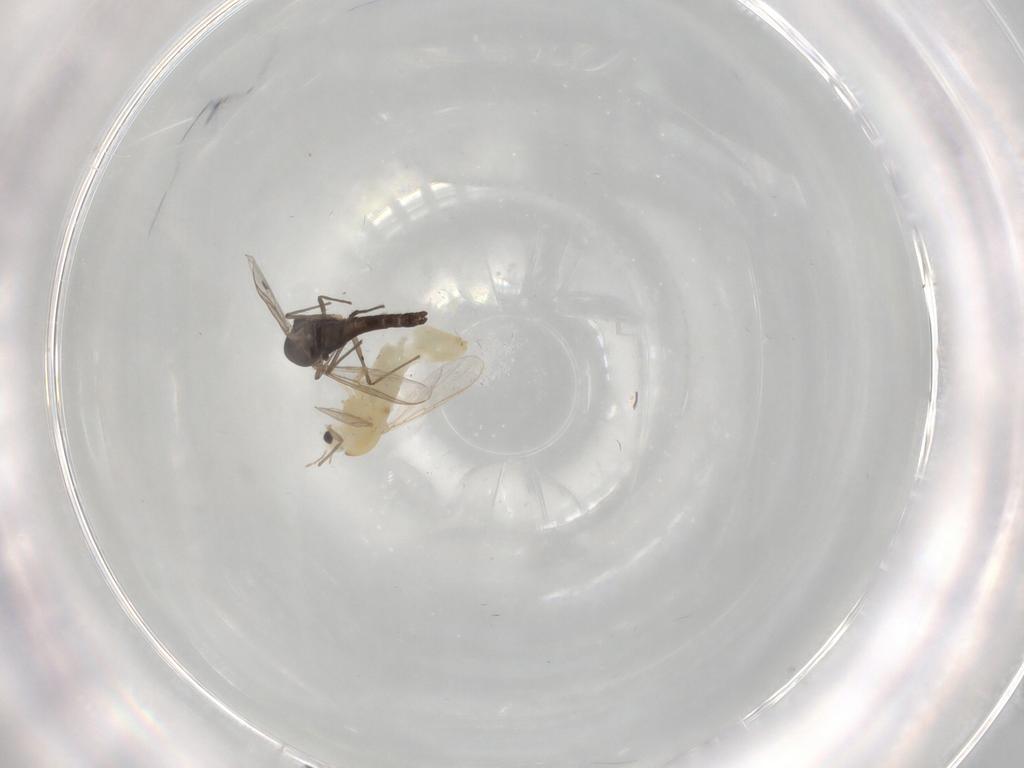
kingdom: Animalia
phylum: Arthropoda
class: Insecta
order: Diptera
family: Chironomidae
